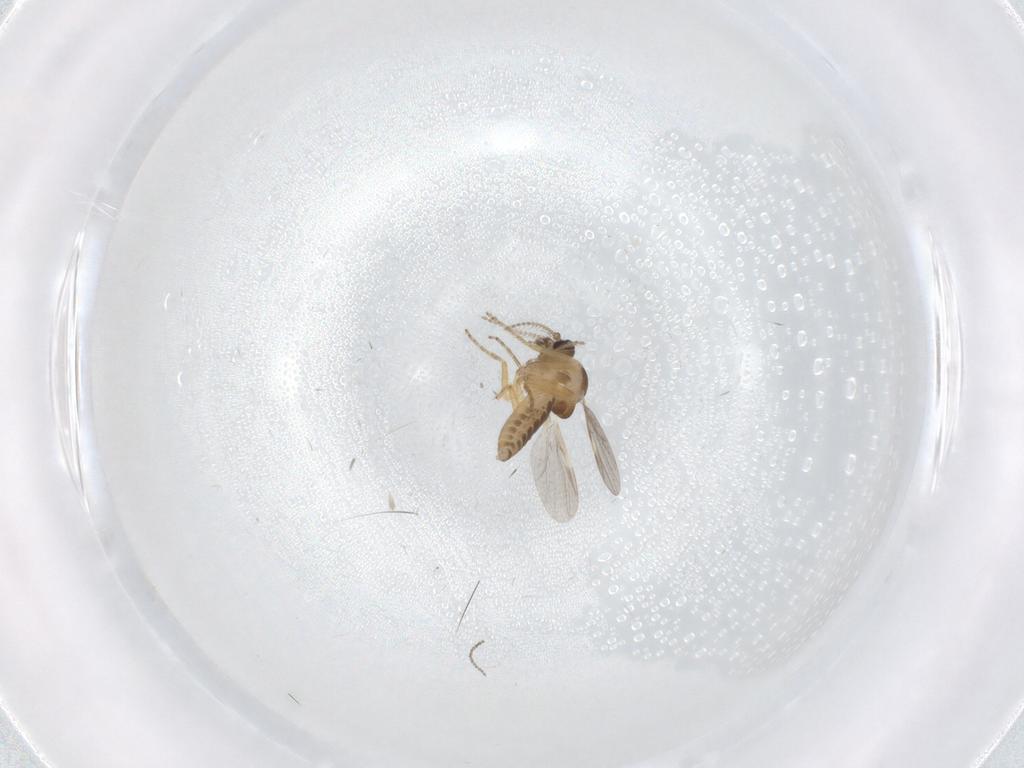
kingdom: Animalia
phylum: Arthropoda
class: Insecta
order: Diptera
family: Ceratopogonidae
